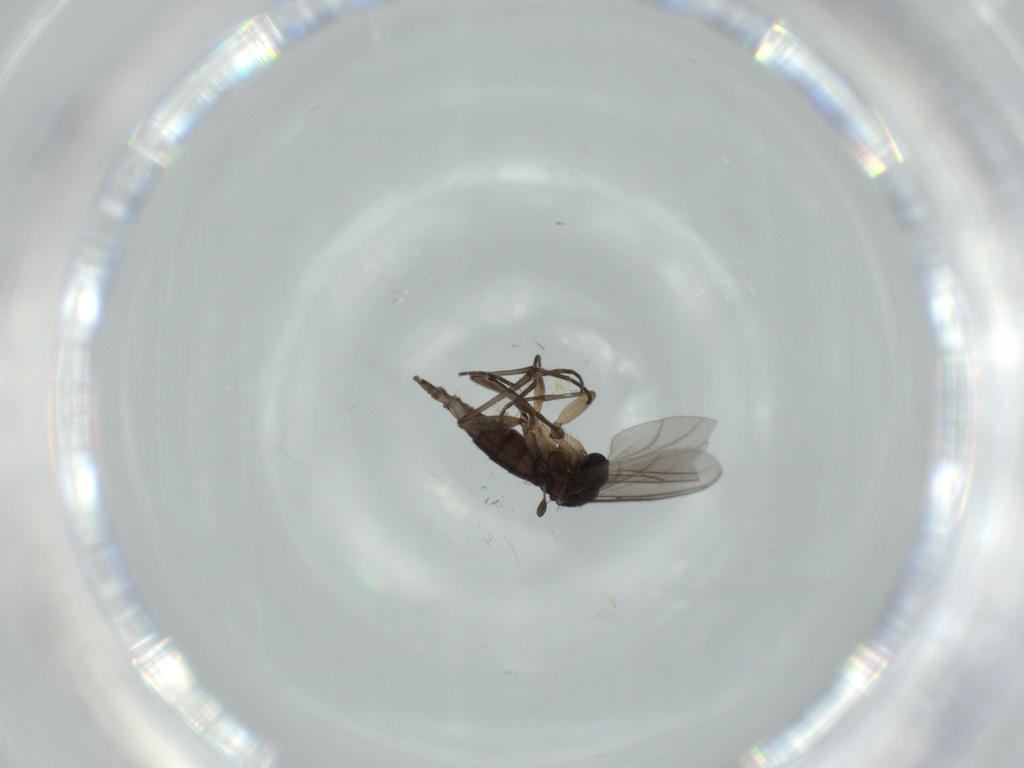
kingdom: Animalia
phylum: Arthropoda
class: Insecta
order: Diptera
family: Sciaridae
